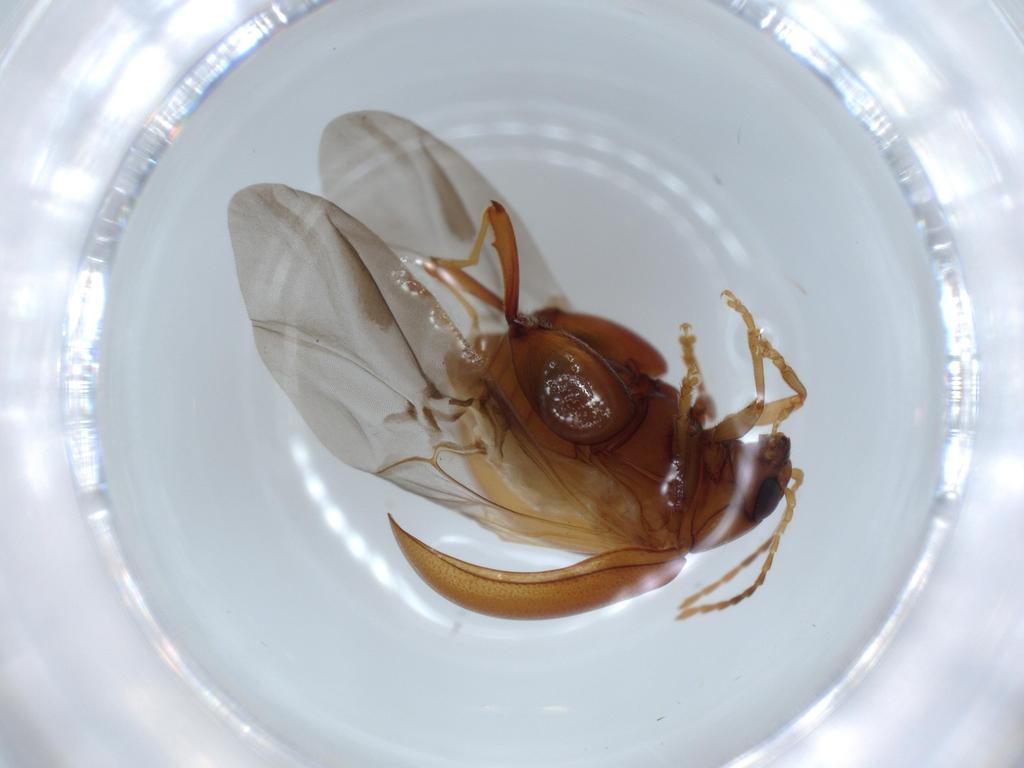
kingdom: Animalia
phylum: Arthropoda
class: Insecta
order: Coleoptera
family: Chrysomelidae
